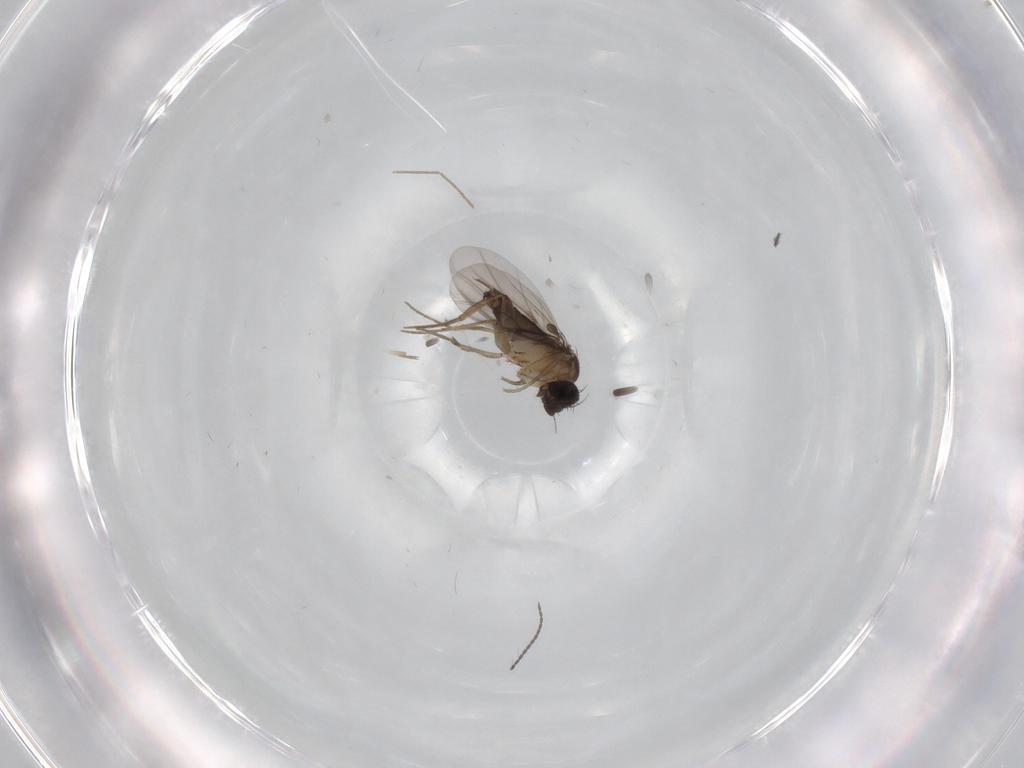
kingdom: Animalia
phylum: Arthropoda
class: Insecta
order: Diptera
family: Phoridae
